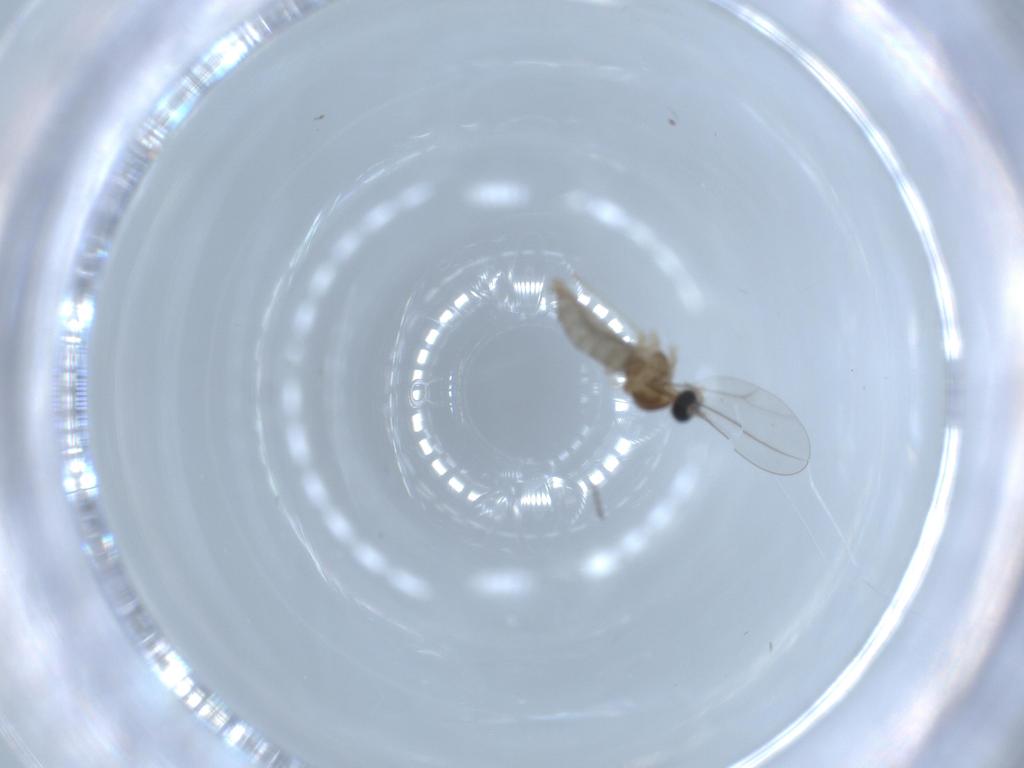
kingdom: Animalia
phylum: Arthropoda
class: Insecta
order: Diptera
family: Cecidomyiidae
